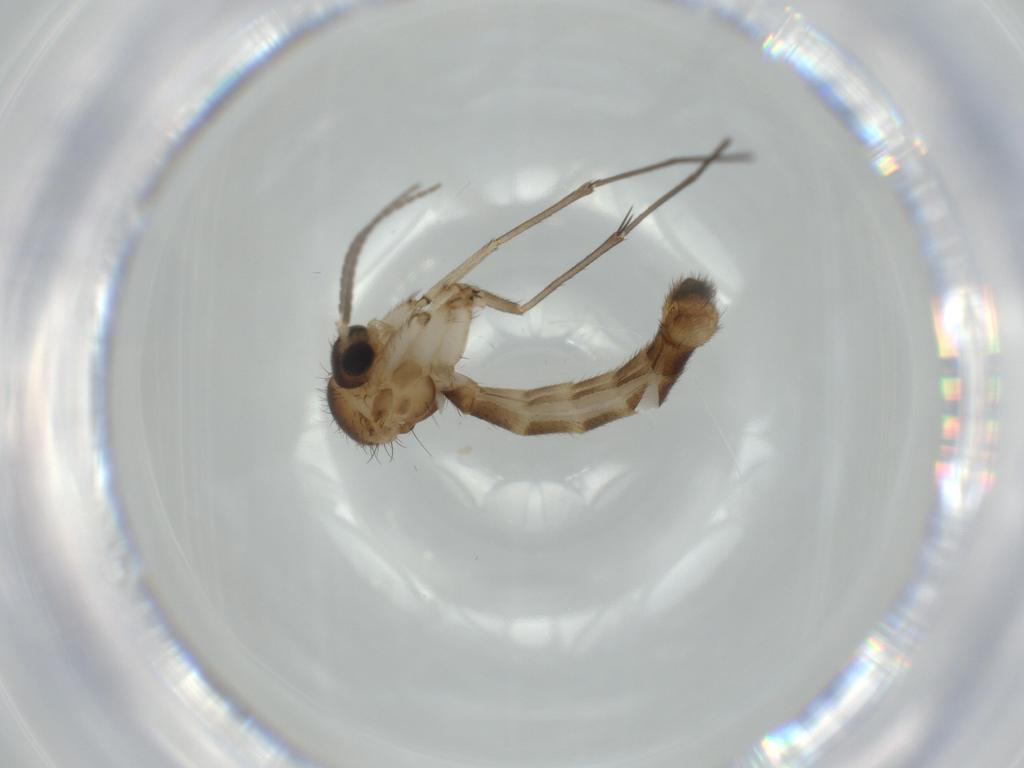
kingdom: Animalia
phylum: Arthropoda
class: Insecta
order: Diptera
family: Syrphidae
